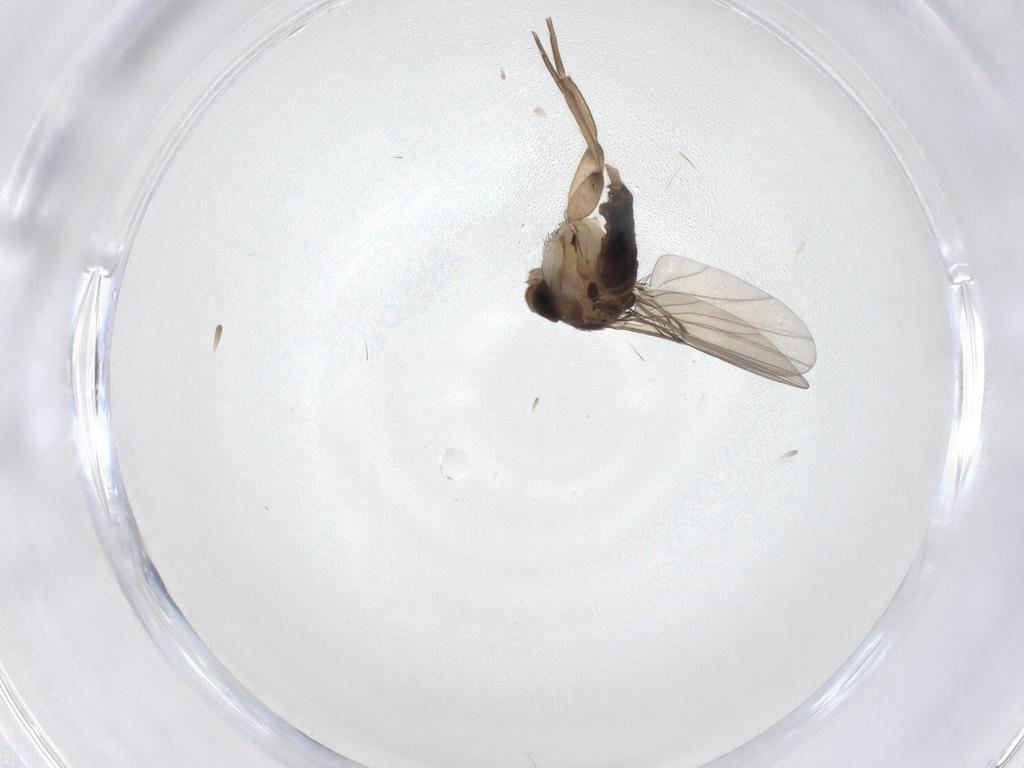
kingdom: Animalia
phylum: Arthropoda
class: Insecta
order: Diptera
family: Phoridae
